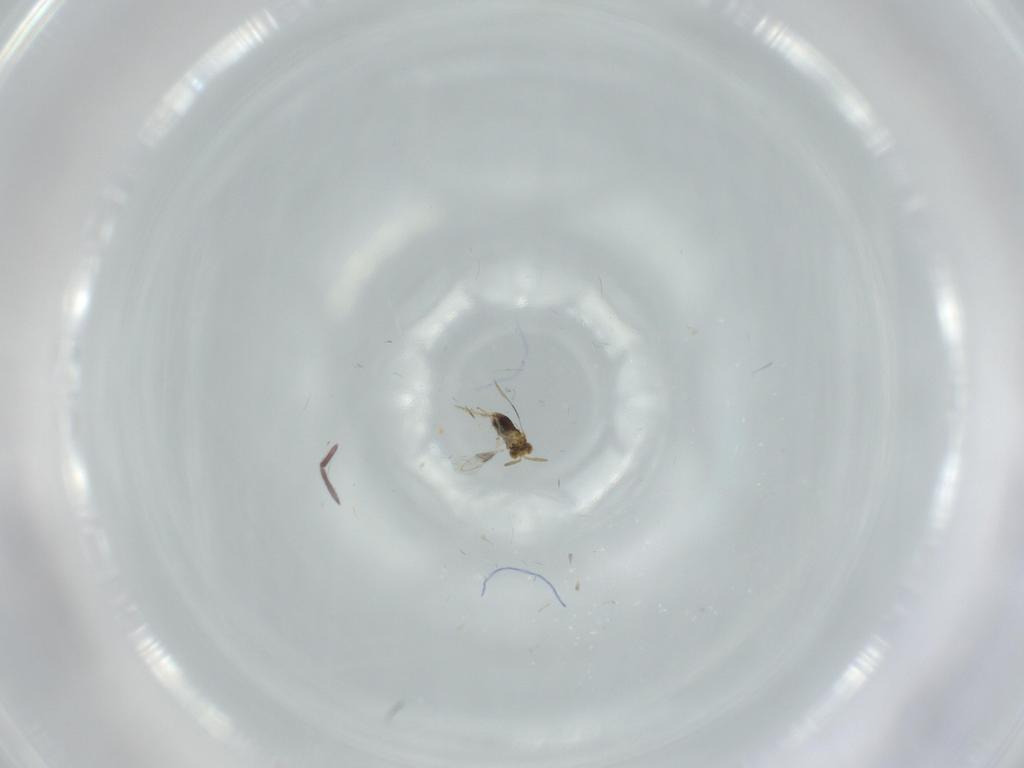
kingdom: Animalia
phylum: Arthropoda
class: Insecta
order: Hymenoptera
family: Aphelinidae
